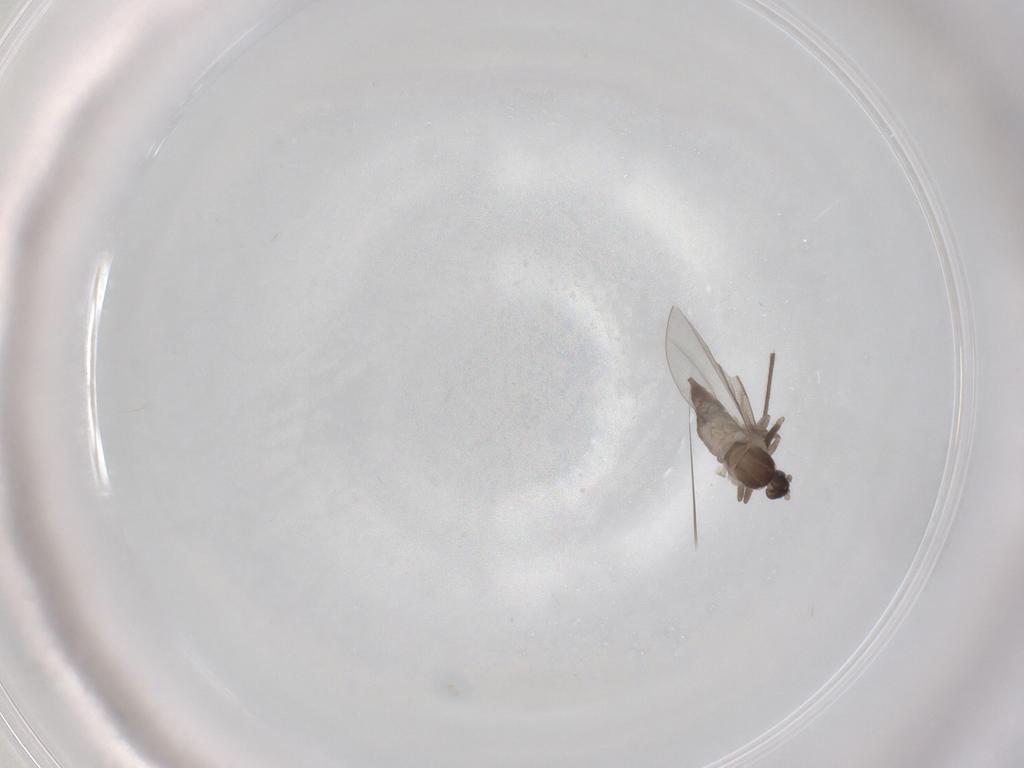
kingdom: Animalia
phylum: Arthropoda
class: Insecta
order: Diptera
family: Cecidomyiidae
